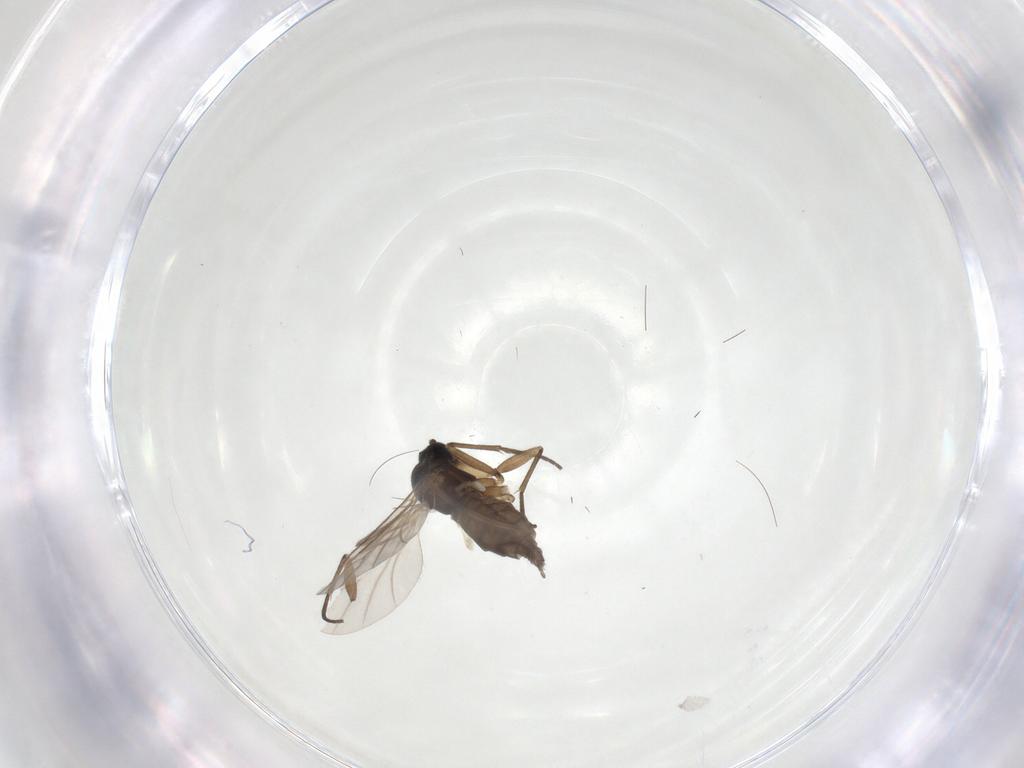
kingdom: Animalia
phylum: Arthropoda
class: Insecta
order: Diptera
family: Sciaridae
